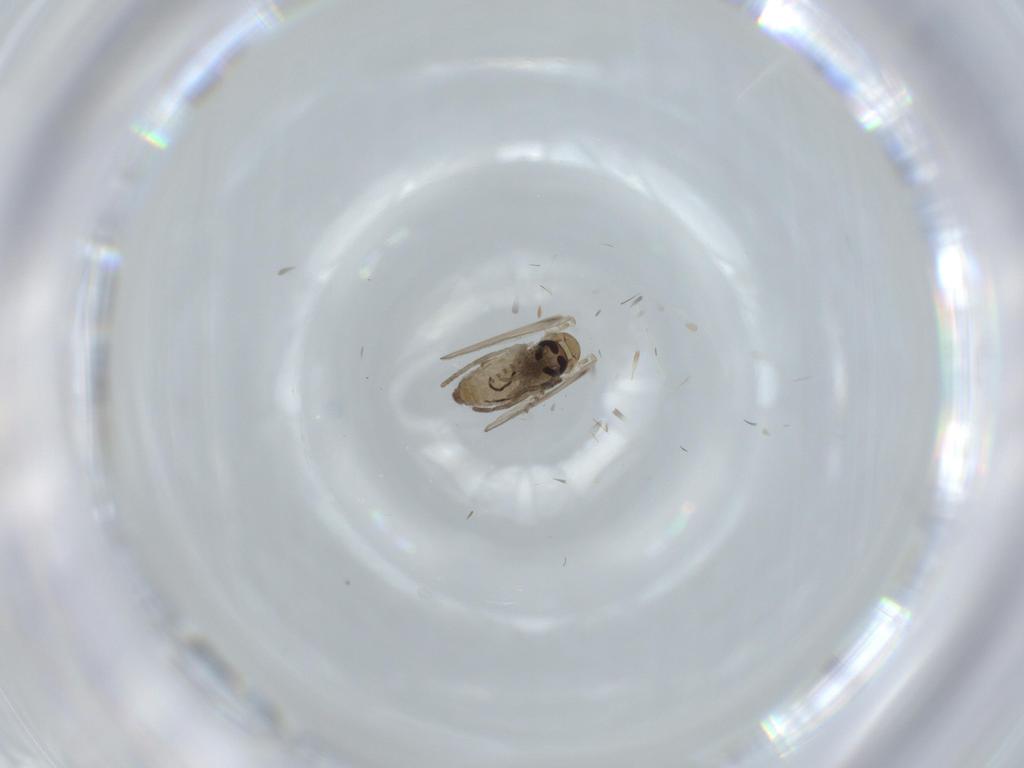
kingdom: Animalia
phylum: Arthropoda
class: Insecta
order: Diptera
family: Psychodidae
